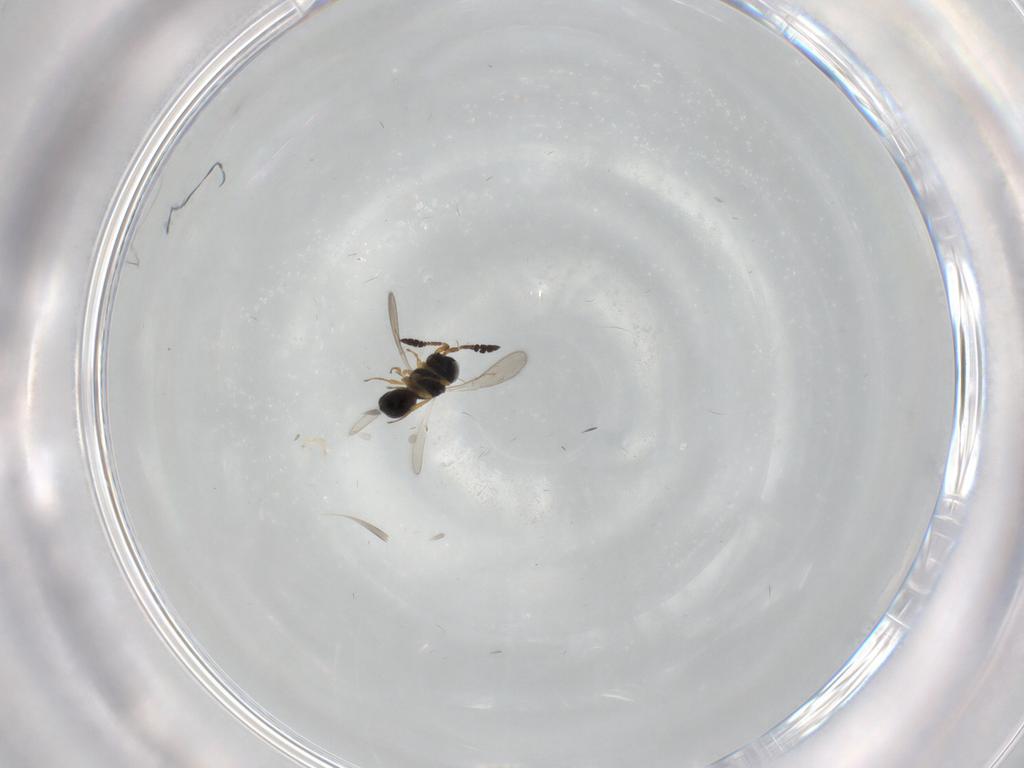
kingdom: Animalia
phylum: Arthropoda
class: Insecta
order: Hymenoptera
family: Scelionidae
